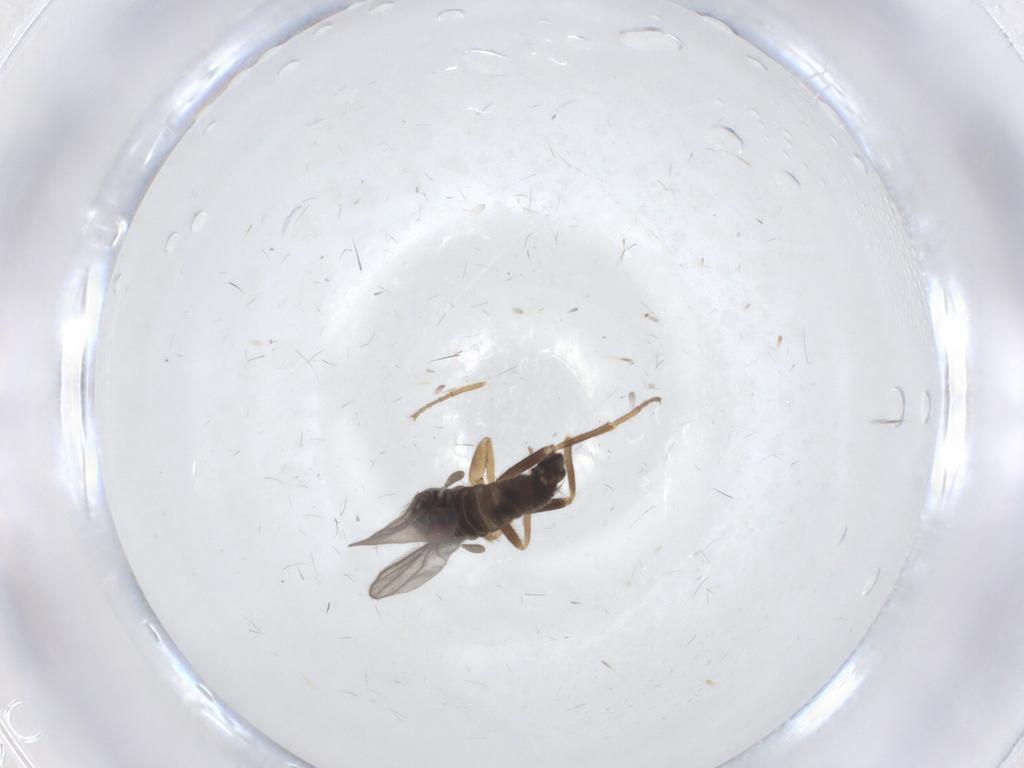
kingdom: Animalia
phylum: Arthropoda
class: Insecta
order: Diptera
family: Hybotidae
